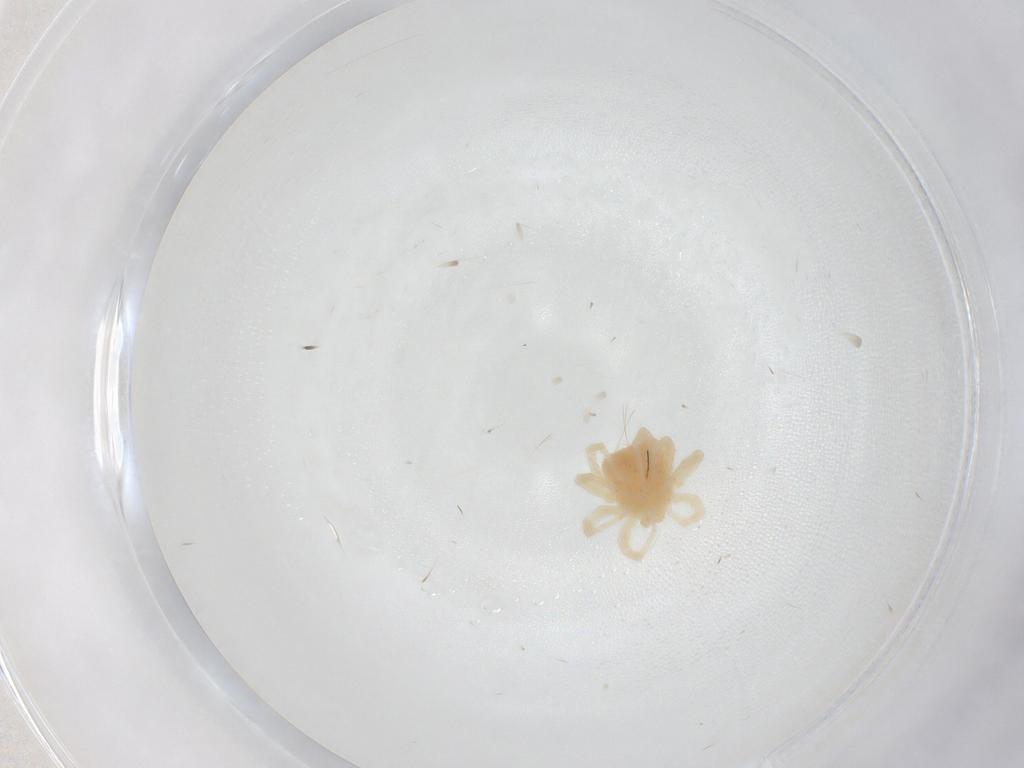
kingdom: Animalia
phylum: Arthropoda
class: Arachnida
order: Trombidiformes
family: Anystidae
